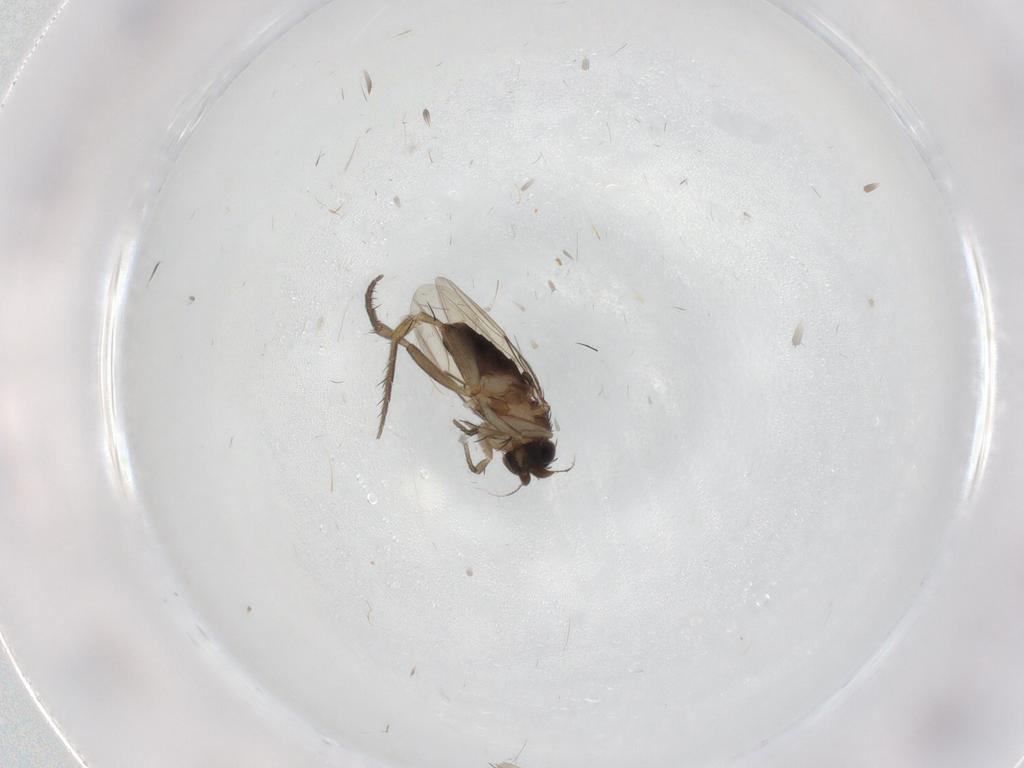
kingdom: Animalia
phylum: Arthropoda
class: Insecta
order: Diptera
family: Phoridae
